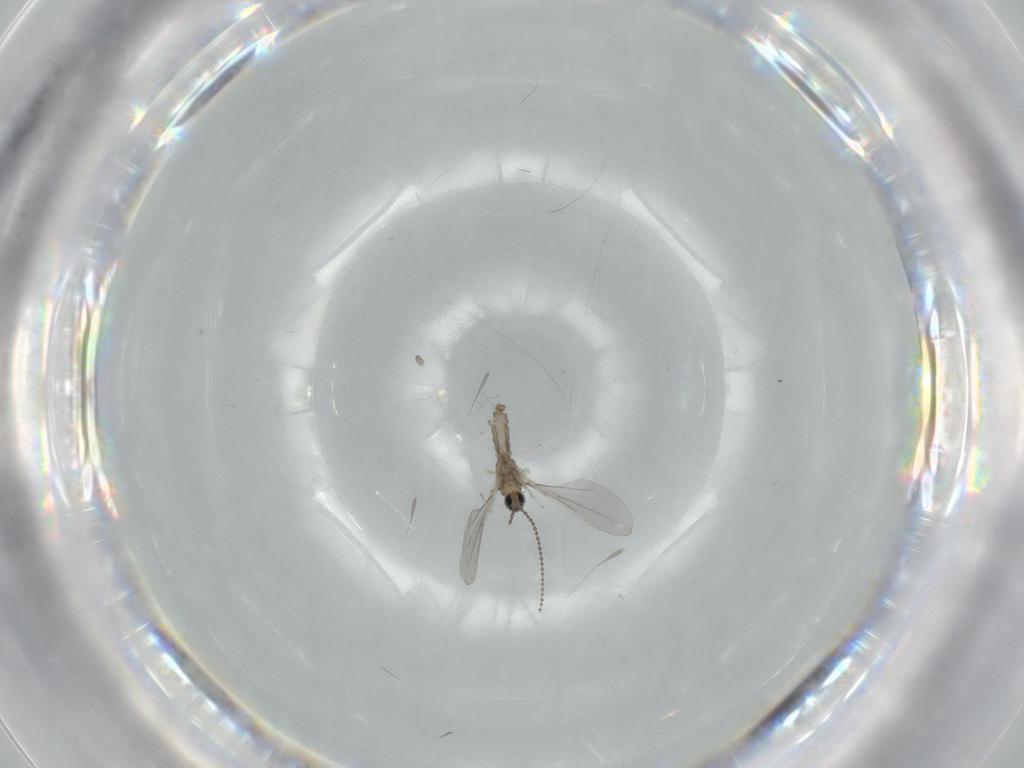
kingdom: Animalia
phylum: Arthropoda
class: Insecta
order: Diptera
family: Cecidomyiidae
